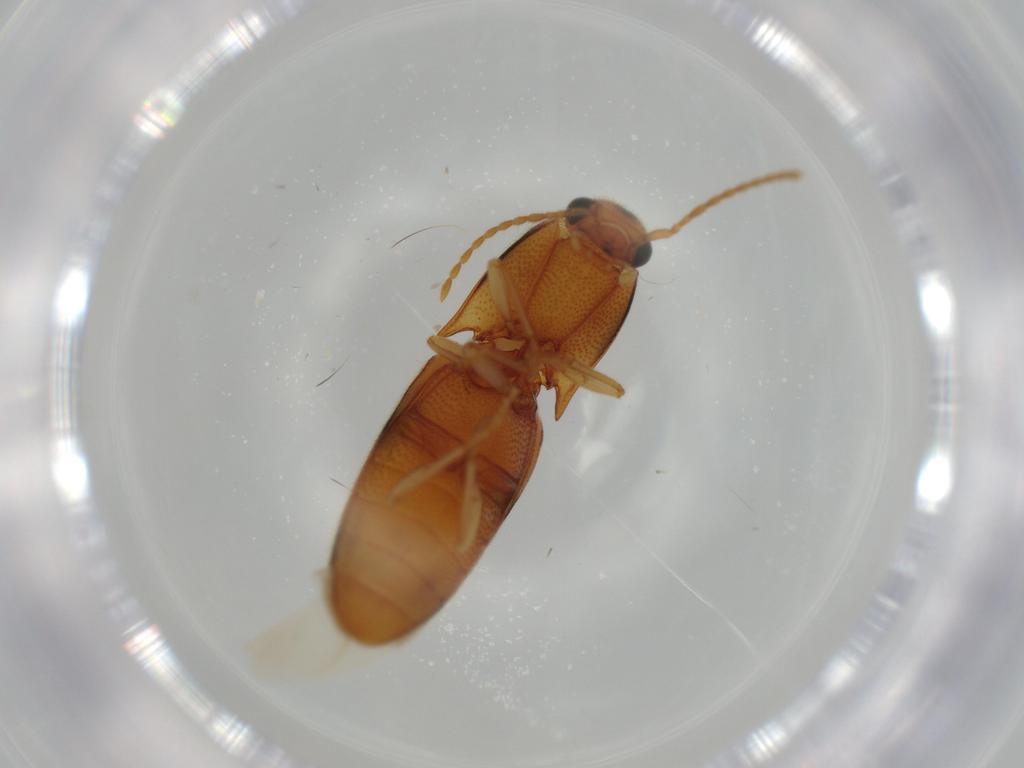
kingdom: Animalia
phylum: Arthropoda
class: Insecta
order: Coleoptera
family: Elateridae
